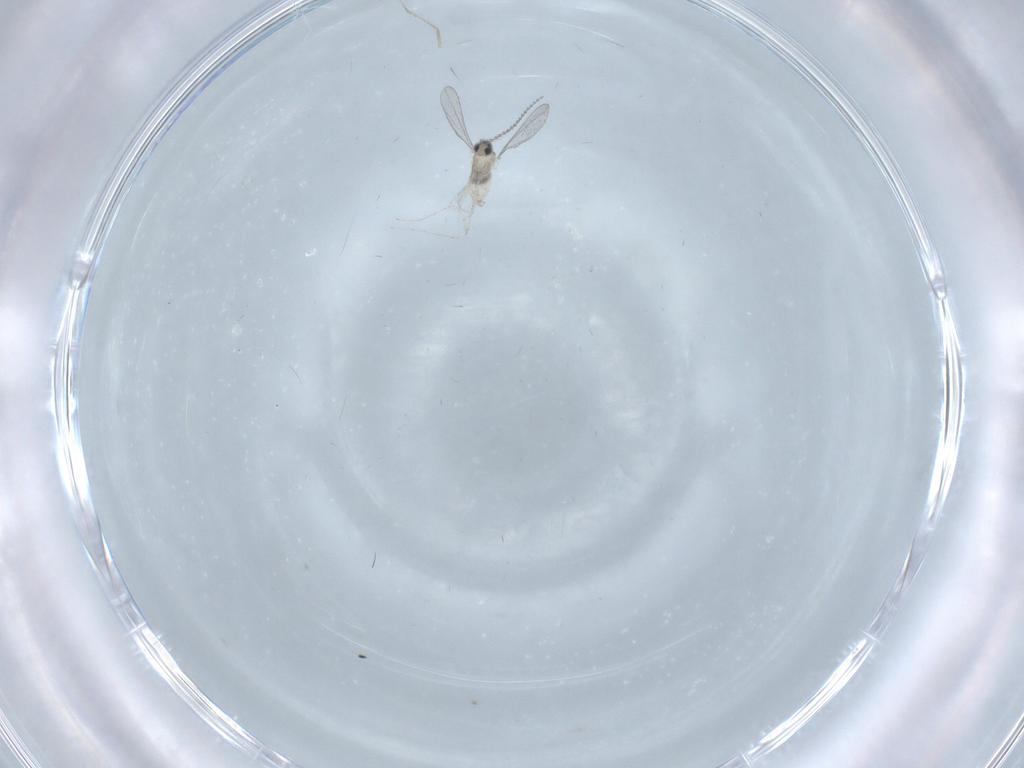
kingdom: Animalia
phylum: Arthropoda
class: Insecta
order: Diptera
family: Cecidomyiidae
